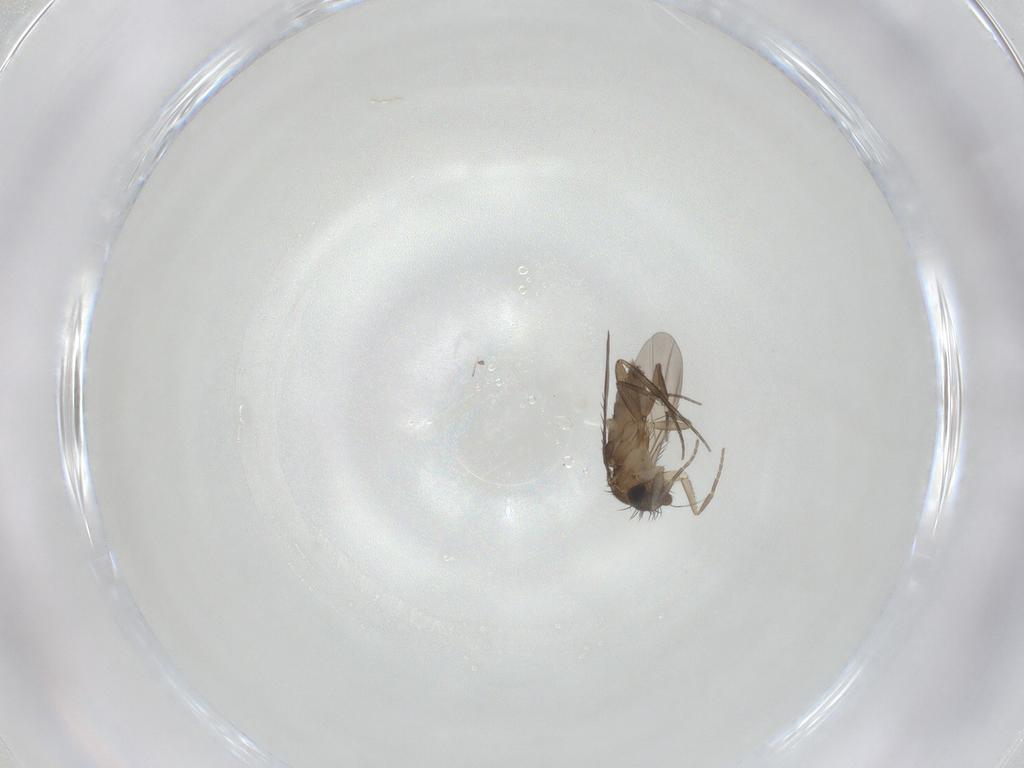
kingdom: Animalia
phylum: Arthropoda
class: Insecta
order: Diptera
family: Phoridae
